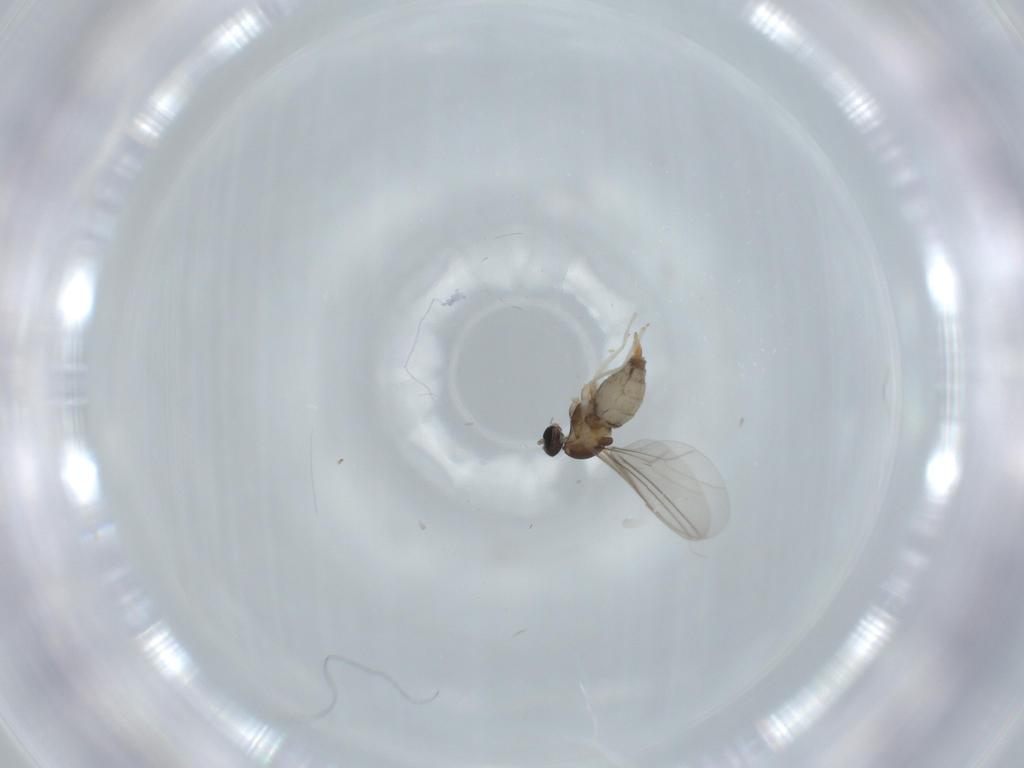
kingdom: Animalia
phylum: Arthropoda
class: Insecta
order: Diptera
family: Cecidomyiidae
